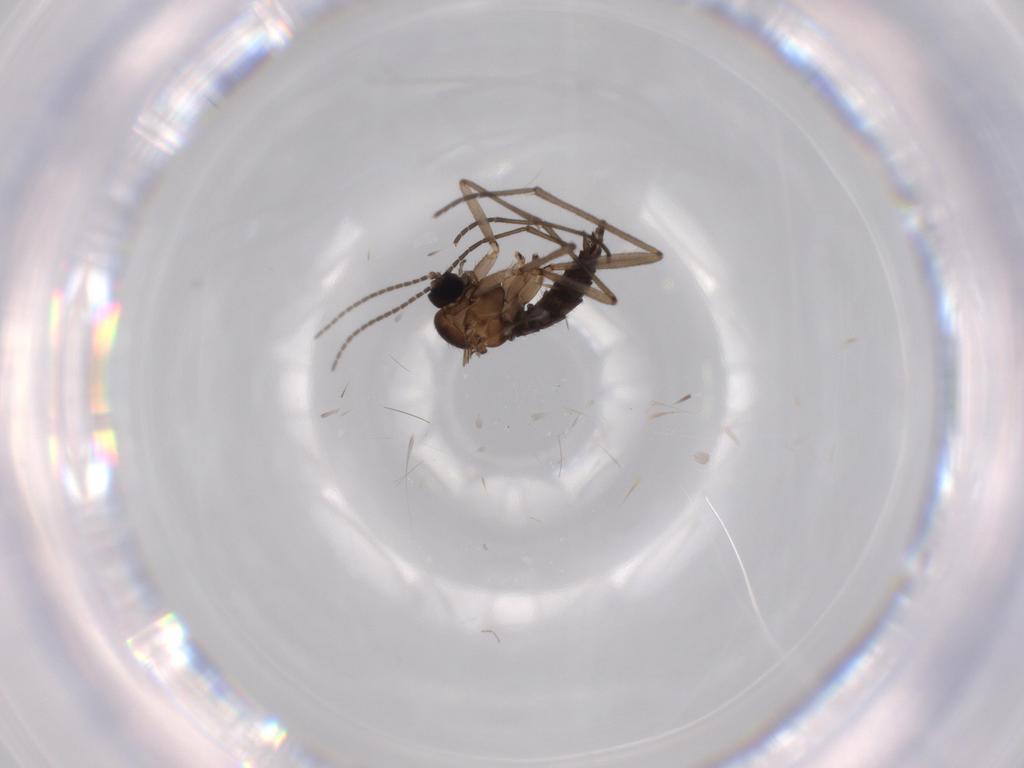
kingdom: Animalia
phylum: Arthropoda
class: Insecta
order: Diptera
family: Sciaridae
